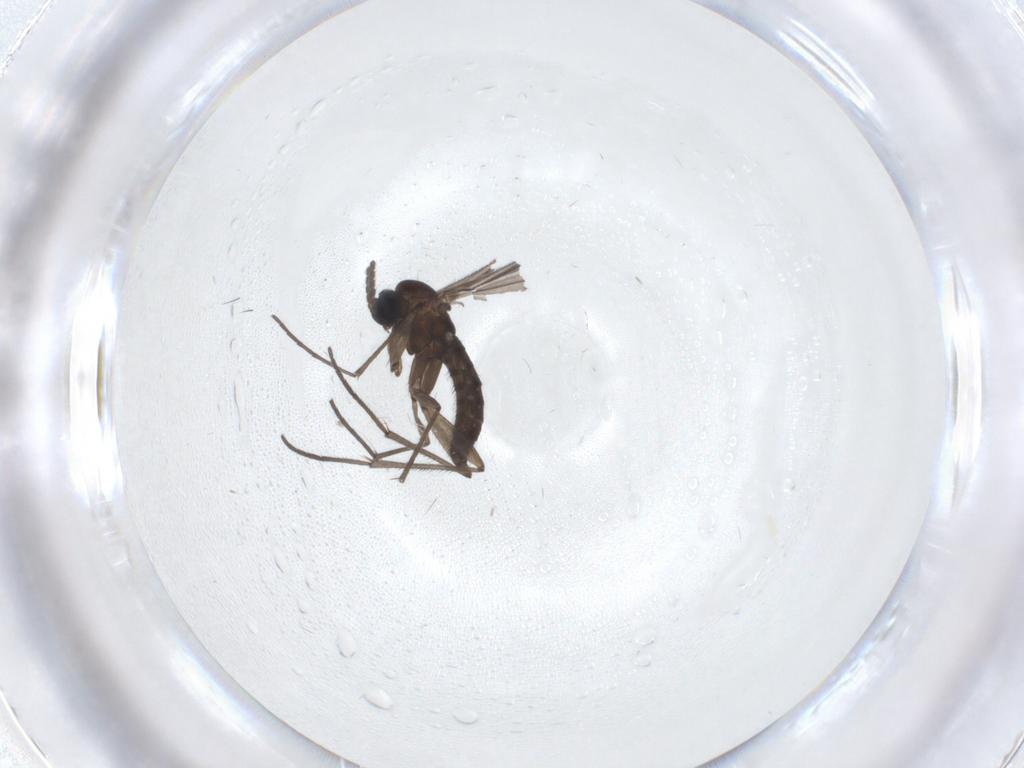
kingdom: Animalia
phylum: Arthropoda
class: Insecta
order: Diptera
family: Sciaridae
